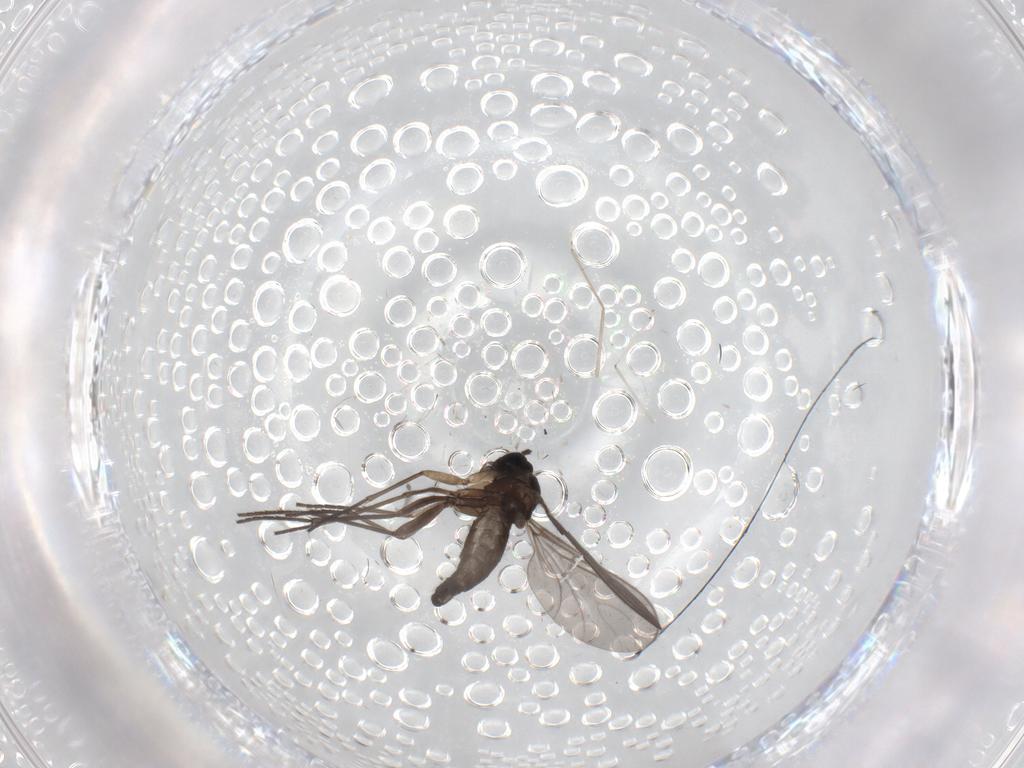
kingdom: Animalia
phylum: Arthropoda
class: Insecta
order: Diptera
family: Sciaridae
